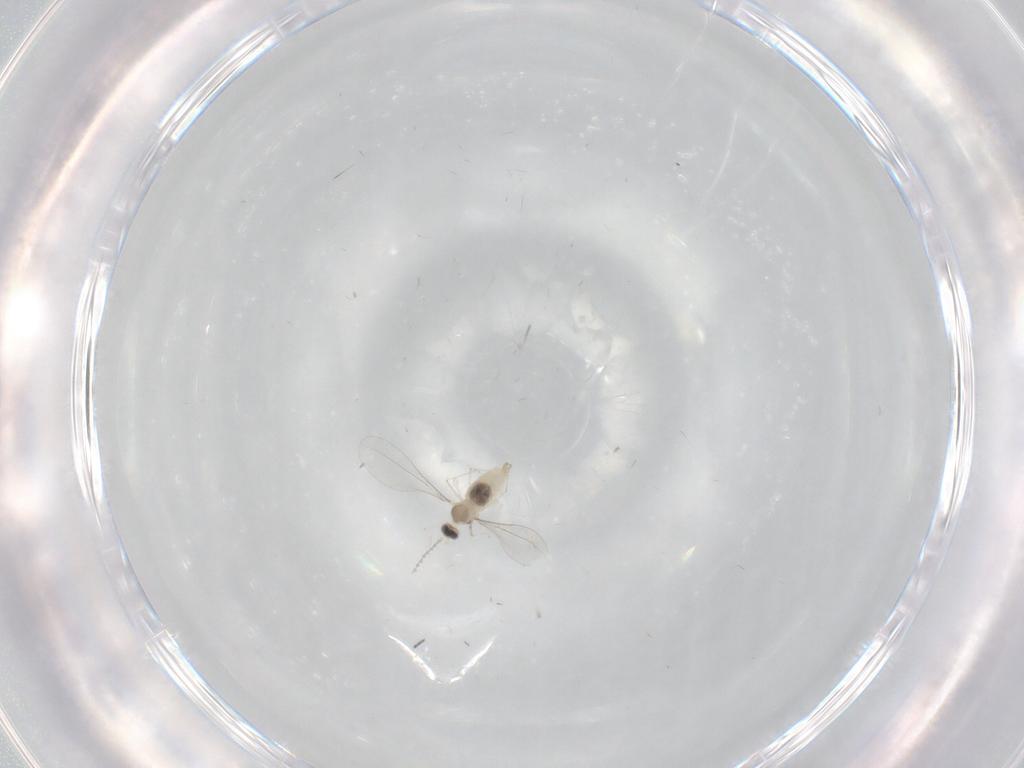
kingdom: Animalia
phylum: Arthropoda
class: Insecta
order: Diptera
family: Cecidomyiidae
